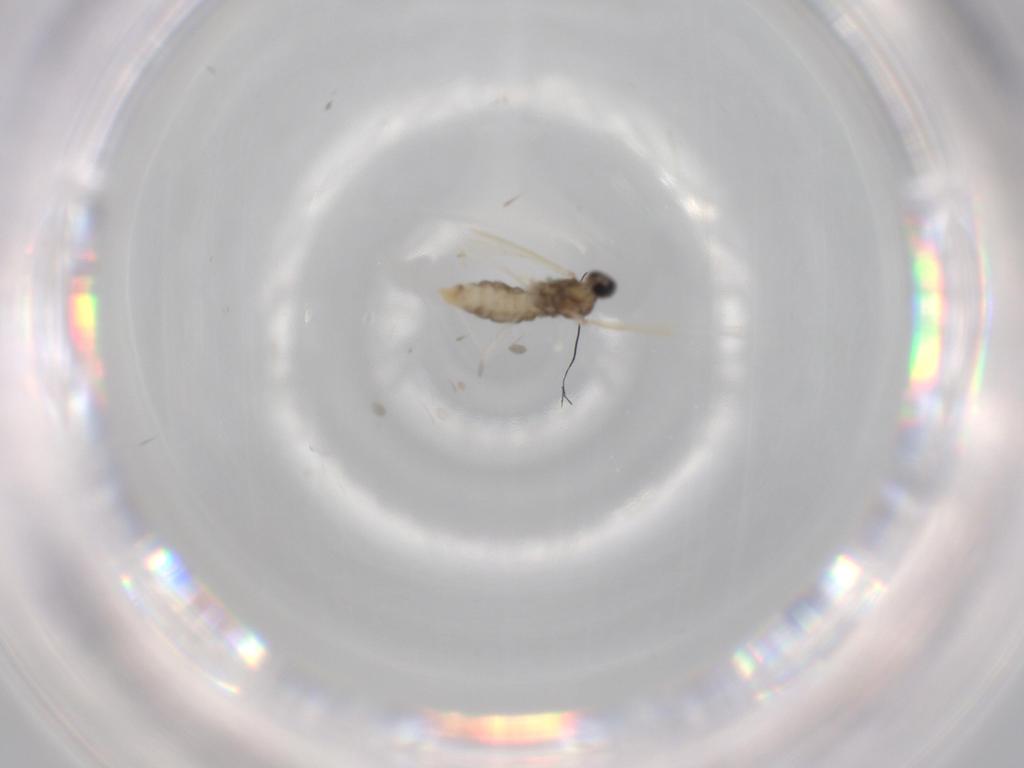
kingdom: Animalia
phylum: Arthropoda
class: Insecta
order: Diptera
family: Cecidomyiidae
